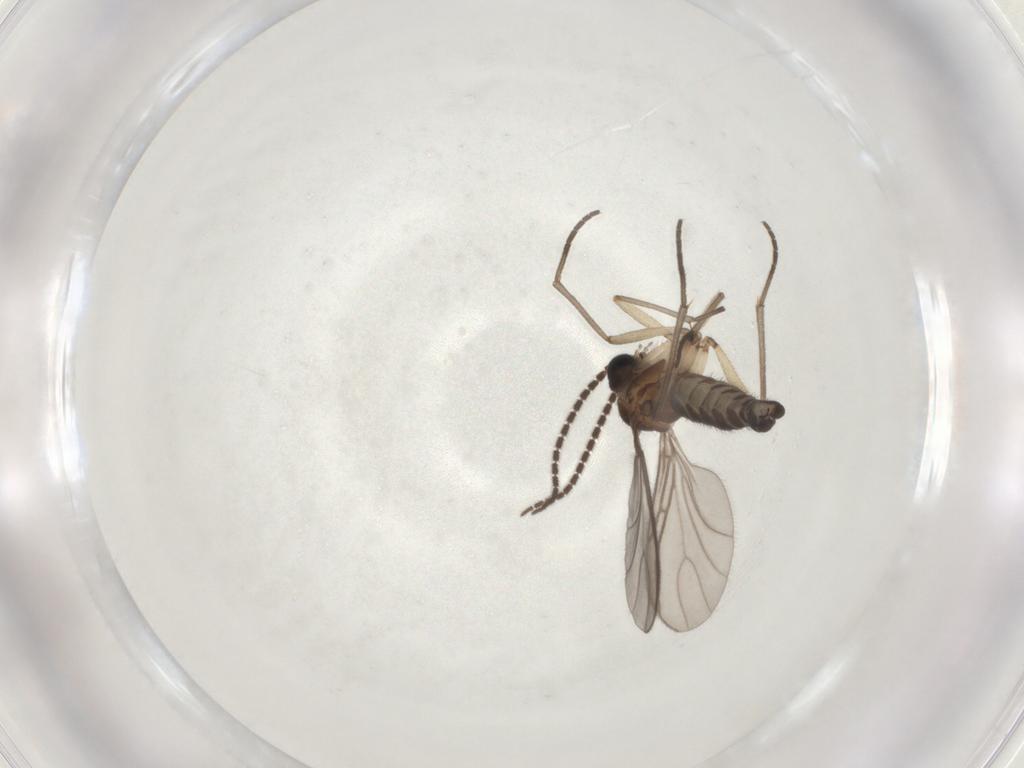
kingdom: Animalia
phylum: Arthropoda
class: Insecta
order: Diptera
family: Sciaridae
